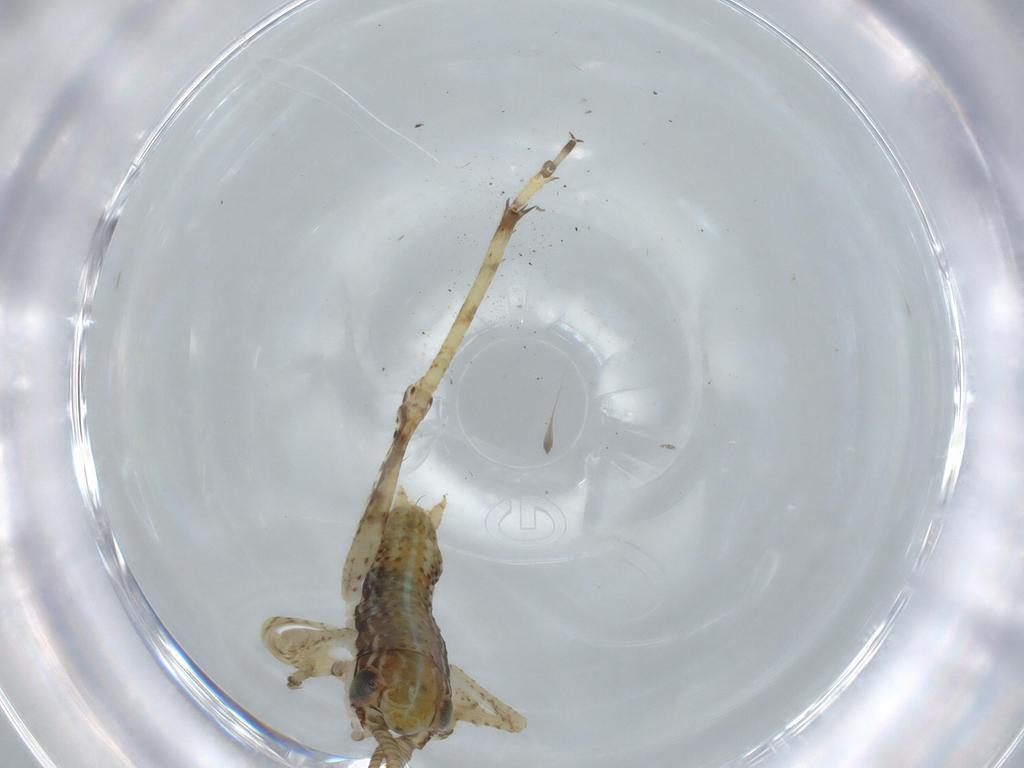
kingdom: Animalia
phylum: Arthropoda
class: Insecta
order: Orthoptera
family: Gryllidae
